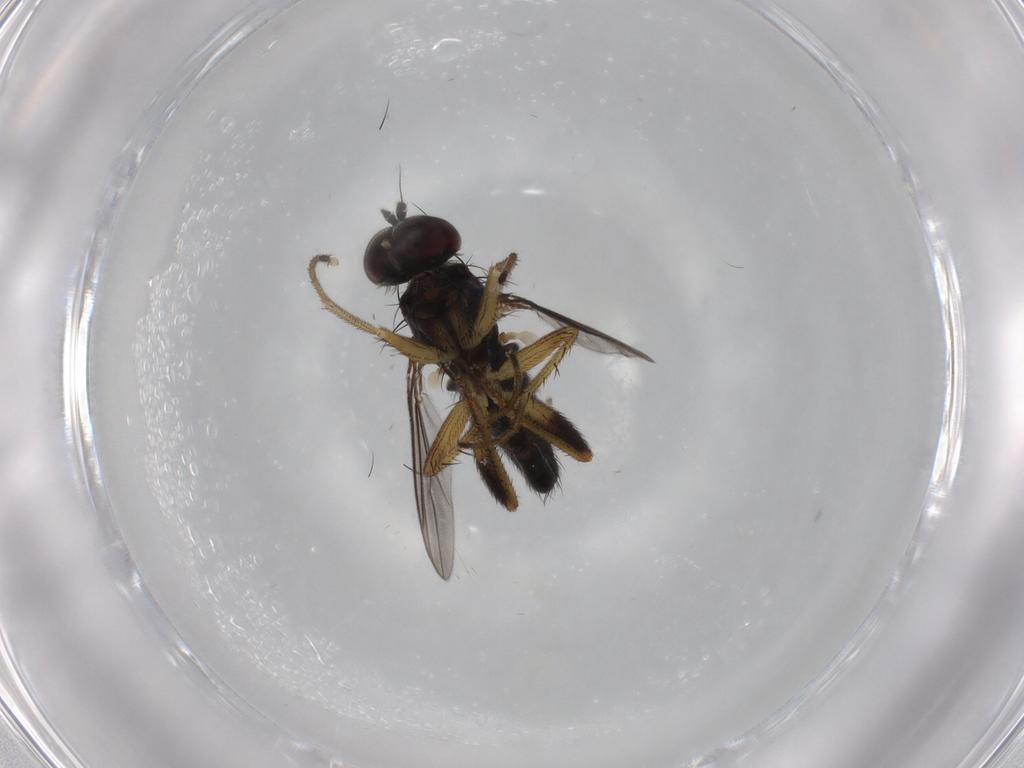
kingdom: Animalia
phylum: Arthropoda
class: Insecta
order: Diptera
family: Dolichopodidae
